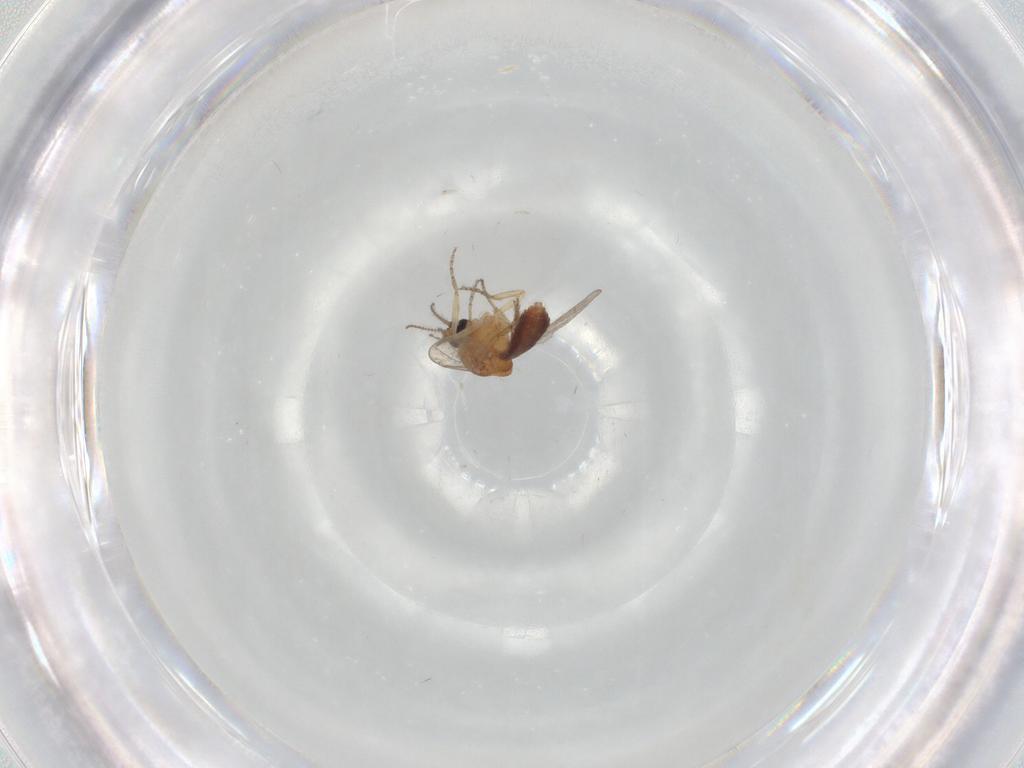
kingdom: Animalia
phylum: Arthropoda
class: Insecta
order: Diptera
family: Ceratopogonidae
